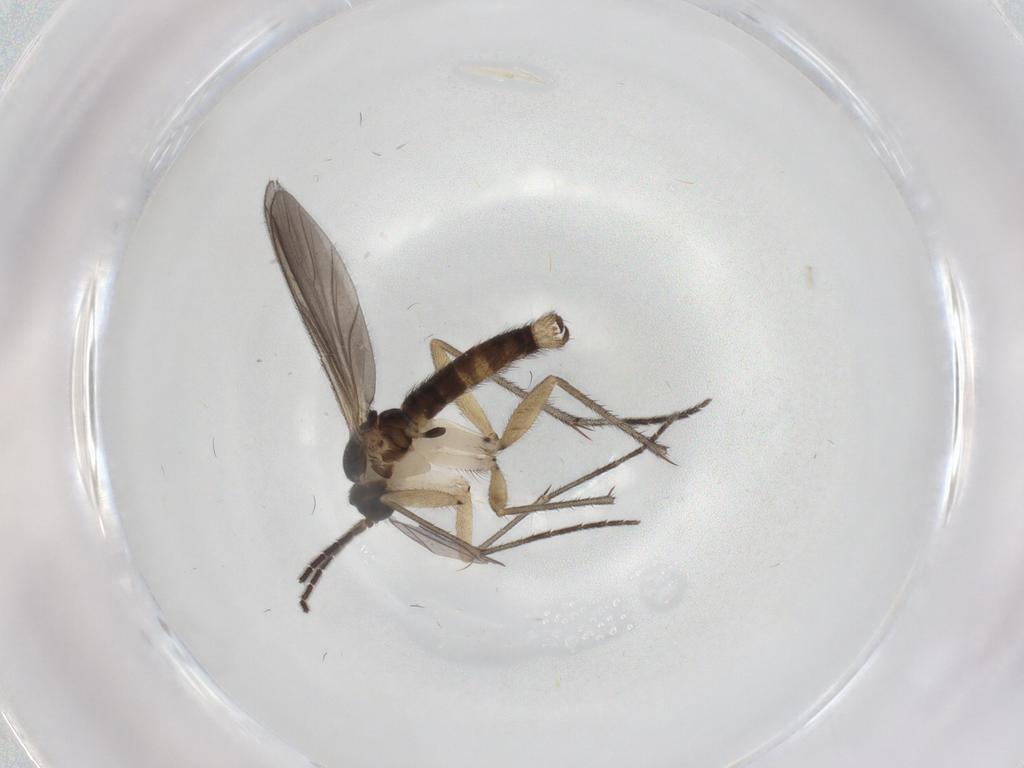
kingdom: Animalia
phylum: Arthropoda
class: Insecta
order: Diptera
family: Sciaridae
